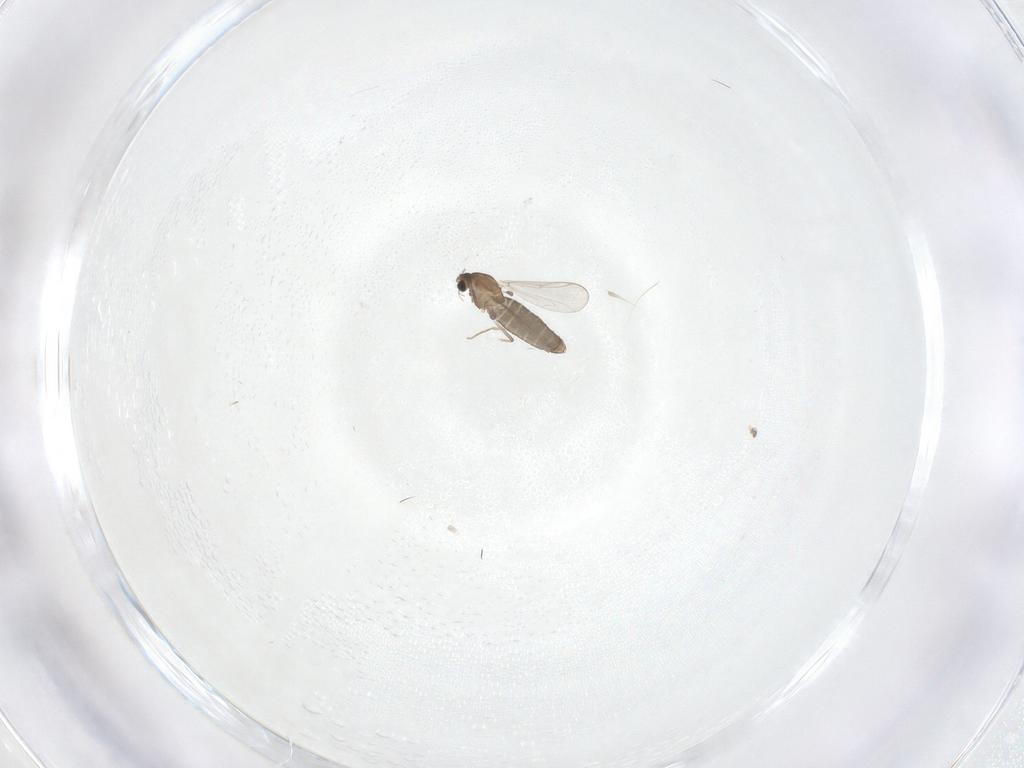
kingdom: Animalia
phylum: Arthropoda
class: Insecta
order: Diptera
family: Chironomidae
